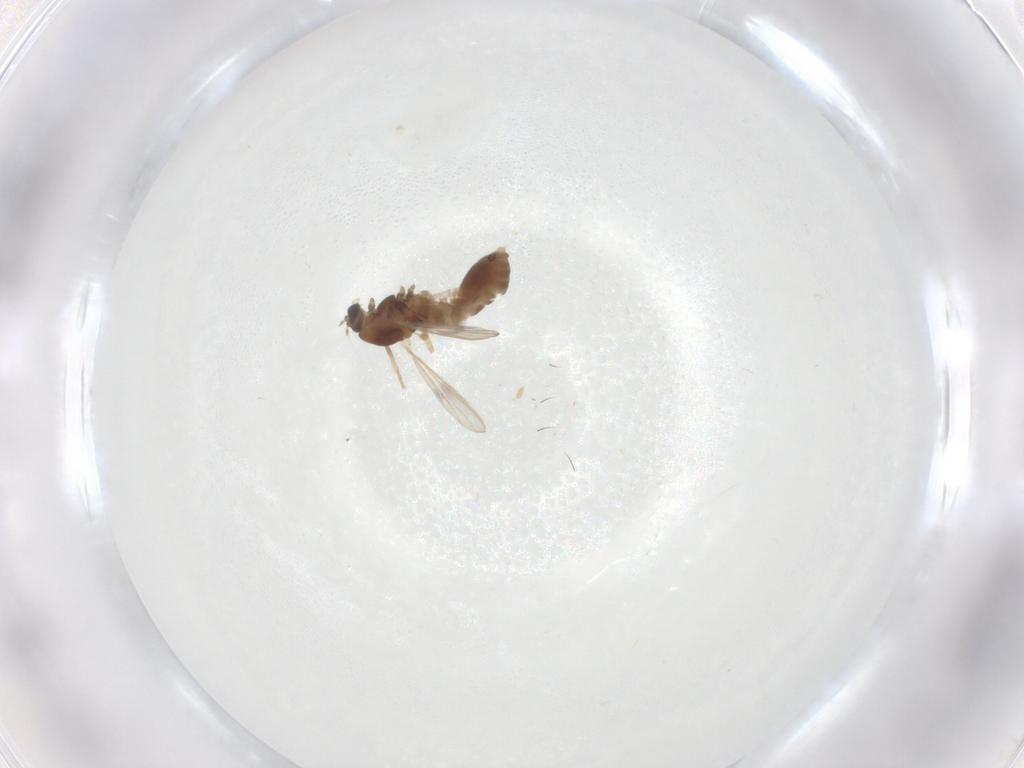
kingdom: Animalia
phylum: Arthropoda
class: Insecta
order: Diptera
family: Chironomidae
